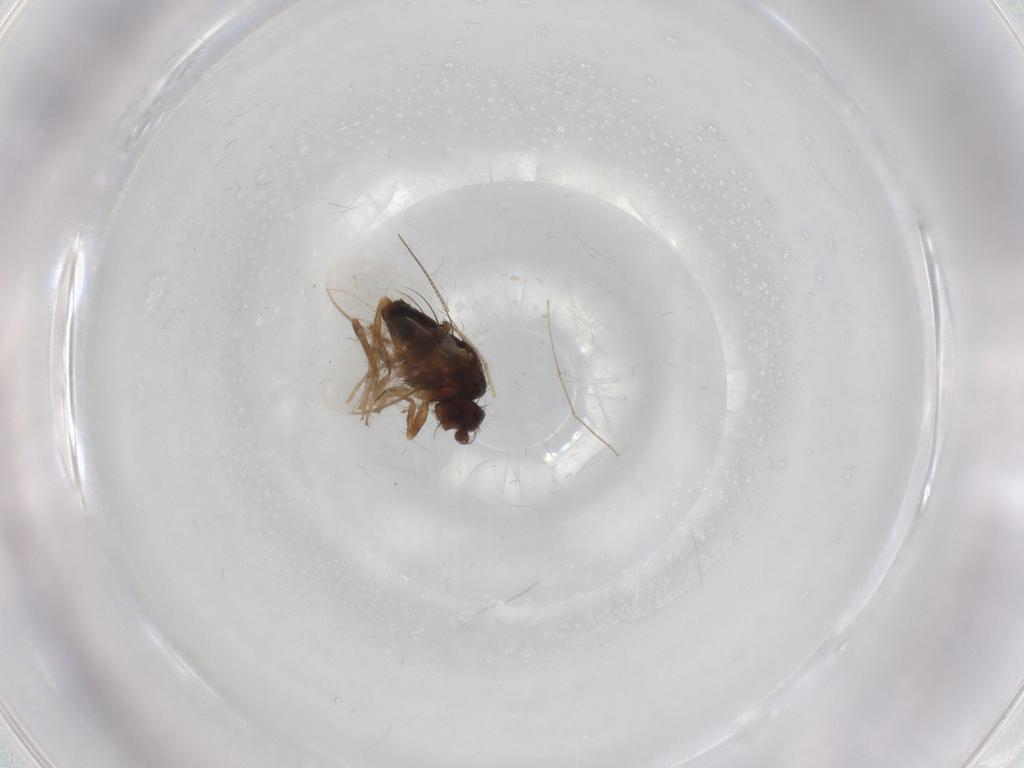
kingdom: Animalia
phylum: Arthropoda
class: Insecta
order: Diptera
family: Sphaeroceridae
